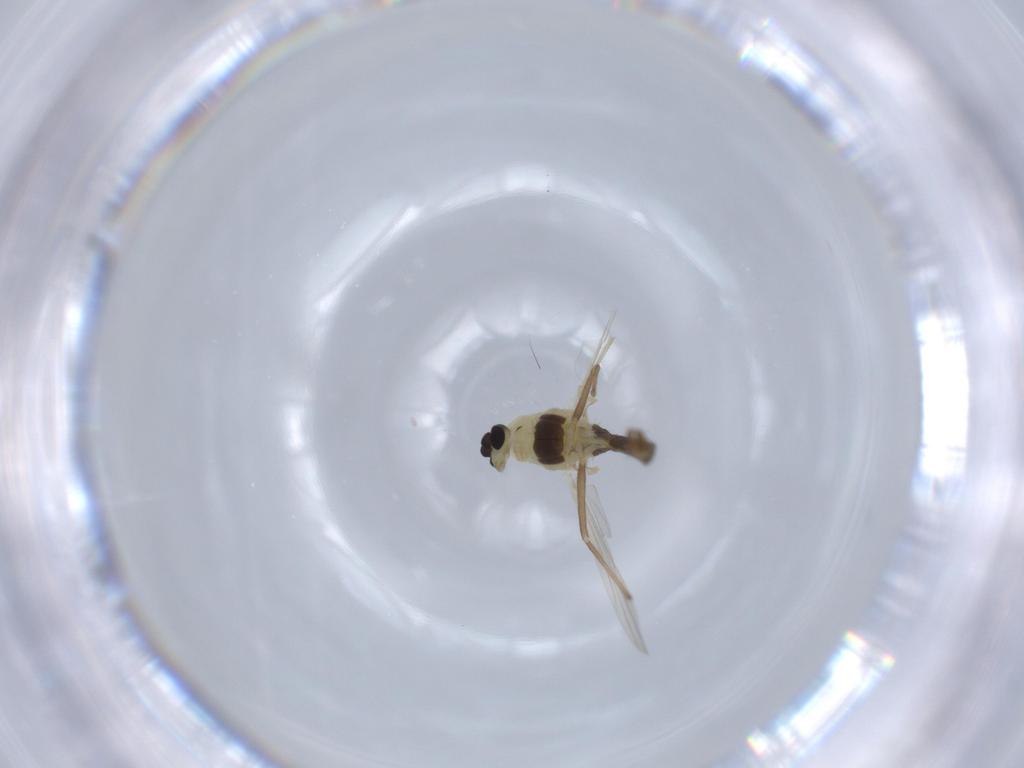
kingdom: Animalia
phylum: Arthropoda
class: Insecta
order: Diptera
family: Chironomidae
